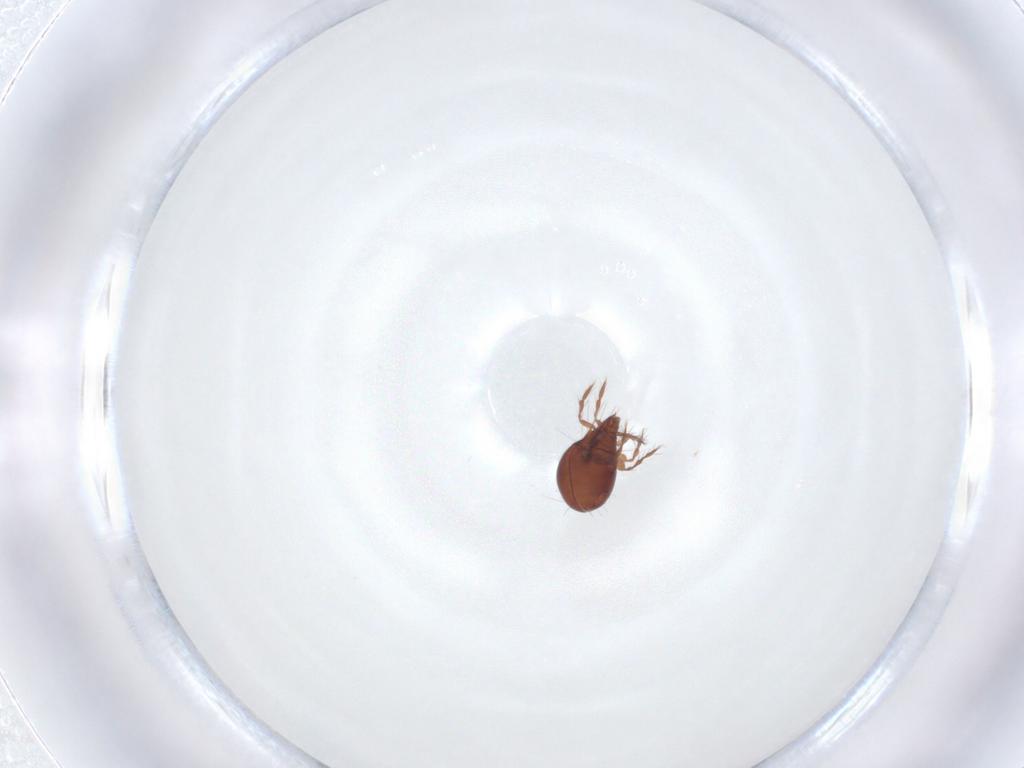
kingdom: Animalia
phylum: Arthropoda
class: Arachnida
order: Sarcoptiformes
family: Ceratoppiidae
